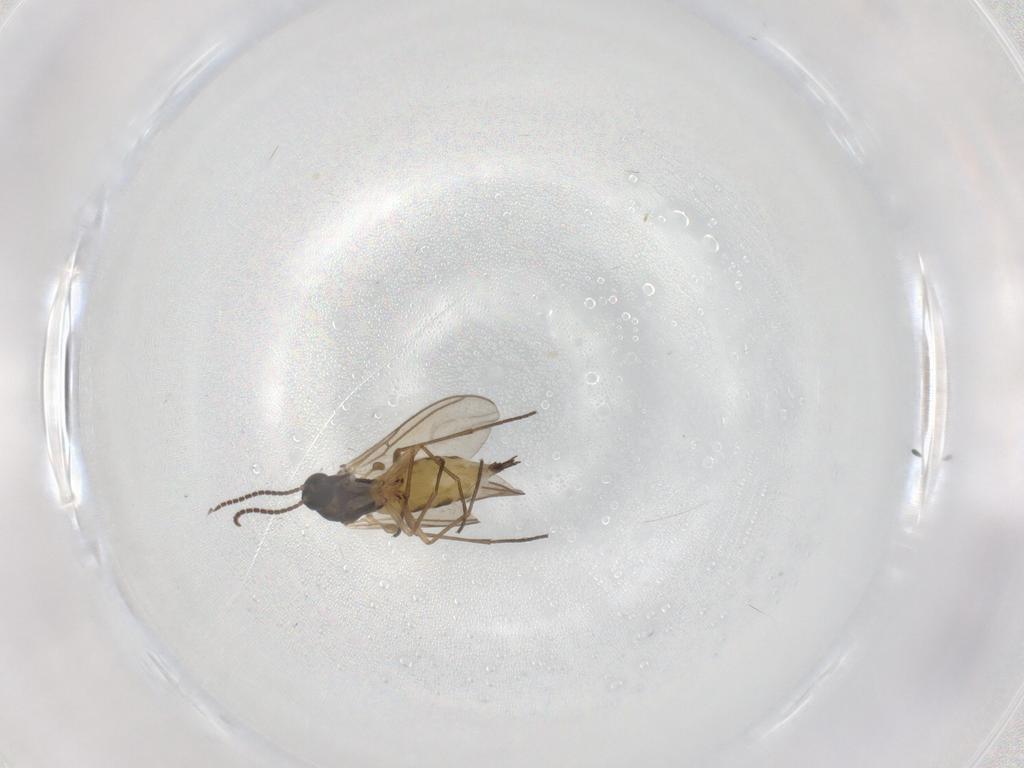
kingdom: Animalia
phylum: Arthropoda
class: Insecta
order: Diptera
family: Sciaridae
